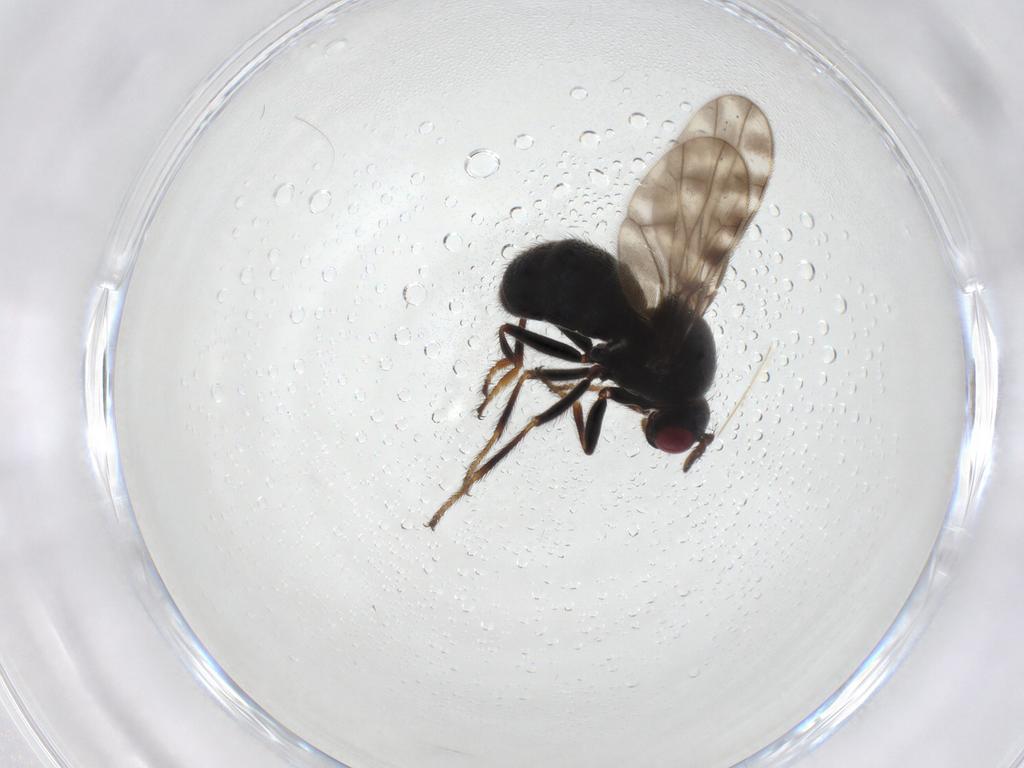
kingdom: Animalia
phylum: Arthropoda
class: Insecta
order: Diptera
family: Ephydridae
